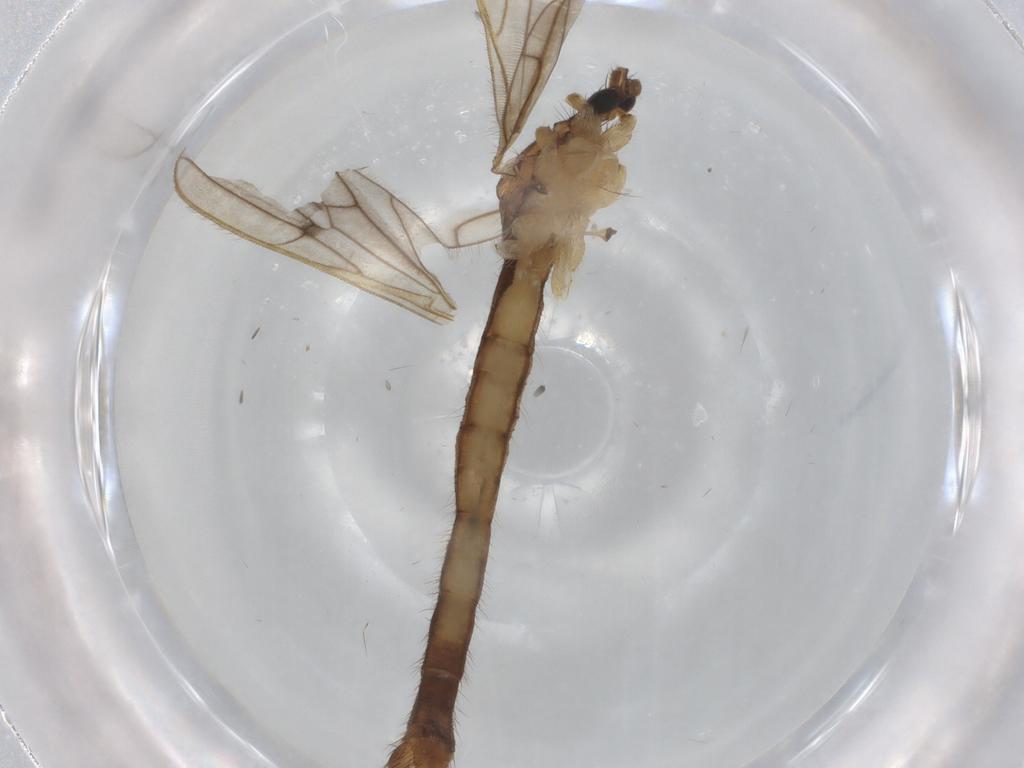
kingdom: Animalia
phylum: Arthropoda
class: Insecta
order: Diptera
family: Limoniidae
